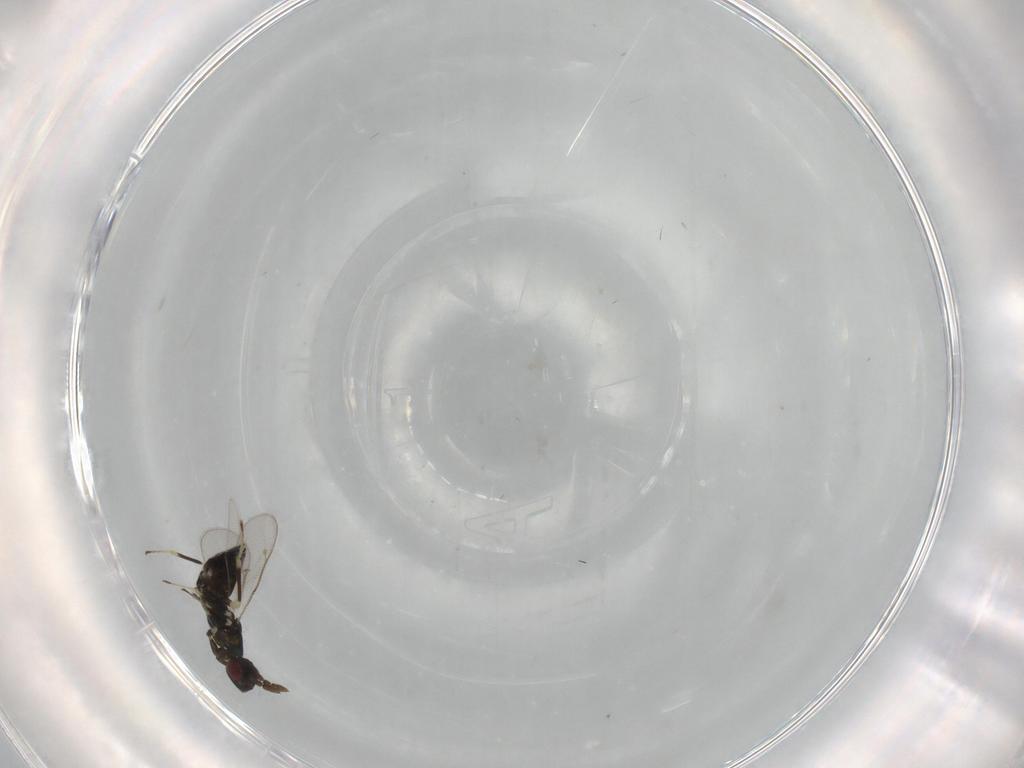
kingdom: Animalia
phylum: Arthropoda
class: Insecta
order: Hymenoptera
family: Eulophidae
